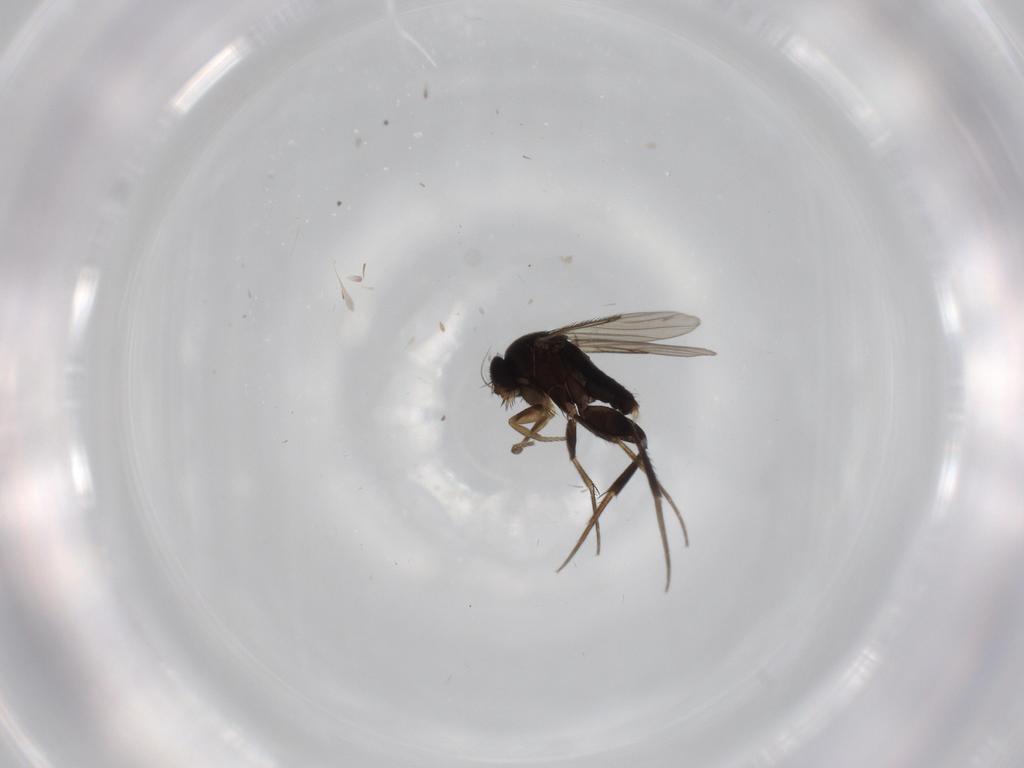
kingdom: Animalia
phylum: Arthropoda
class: Insecta
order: Diptera
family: Phoridae
